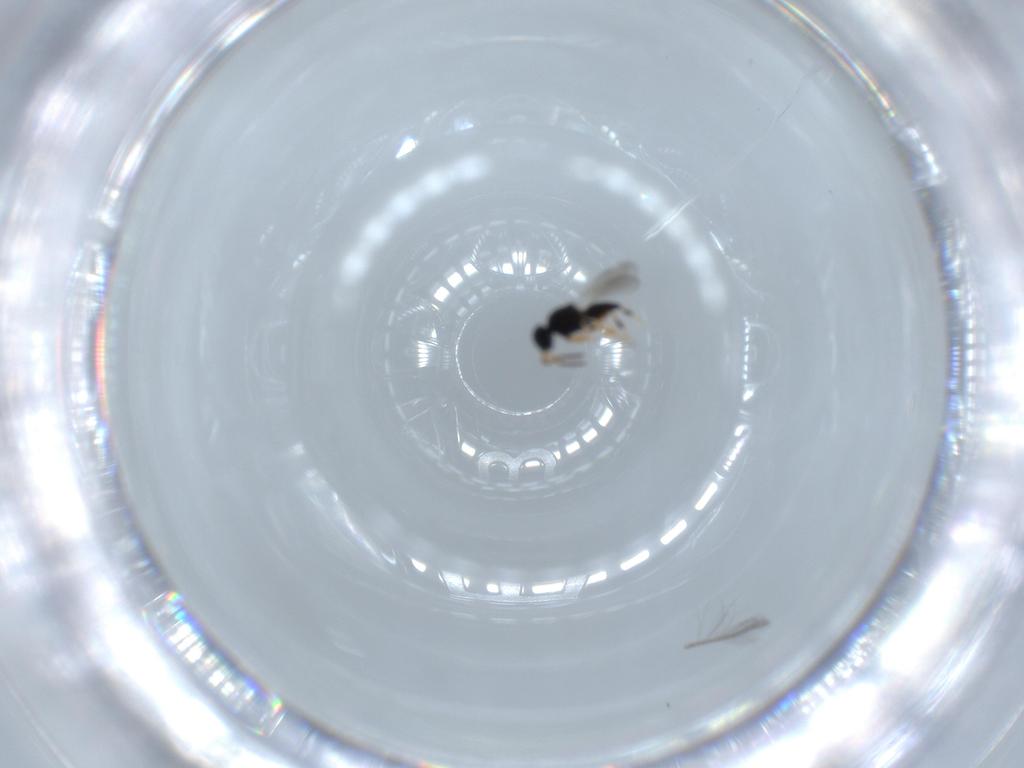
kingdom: Animalia
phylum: Arthropoda
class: Insecta
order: Hymenoptera
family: Platygastridae
